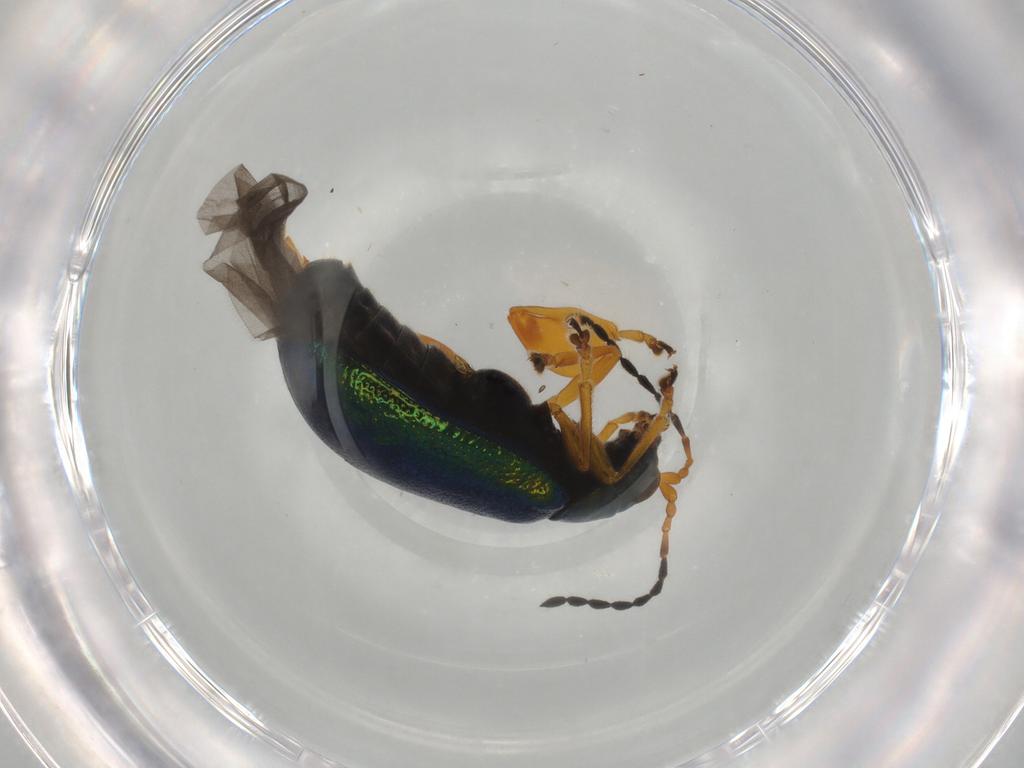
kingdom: Animalia
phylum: Arthropoda
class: Insecta
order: Coleoptera
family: Chrysomelidae
